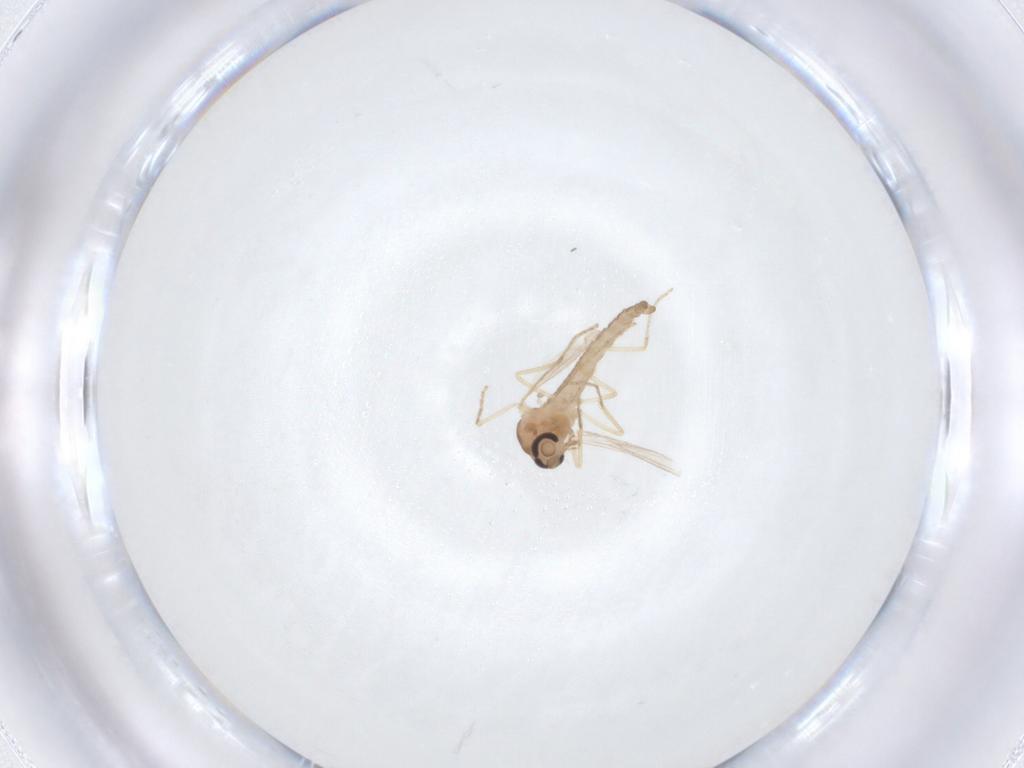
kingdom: Animalia
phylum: Arthropoda
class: Insecta
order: Diptera
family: Ceratopogonidae
